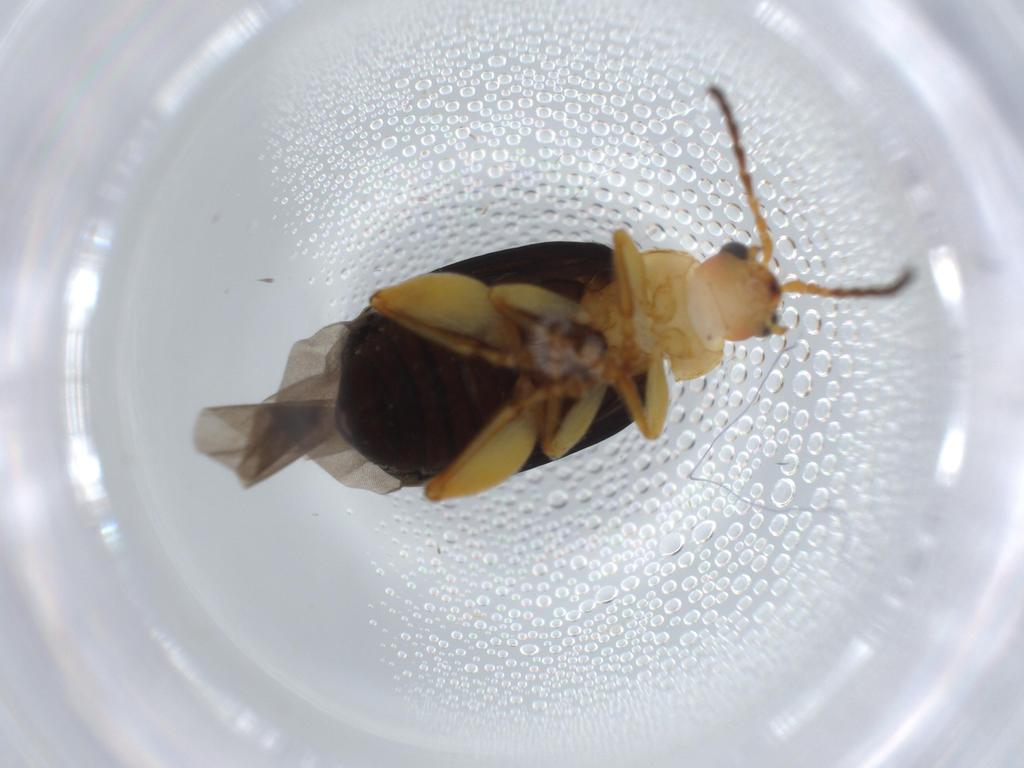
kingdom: Animalia
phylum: Arthropoda
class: Insecta
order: Coleoptera
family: Chrysomelidae
